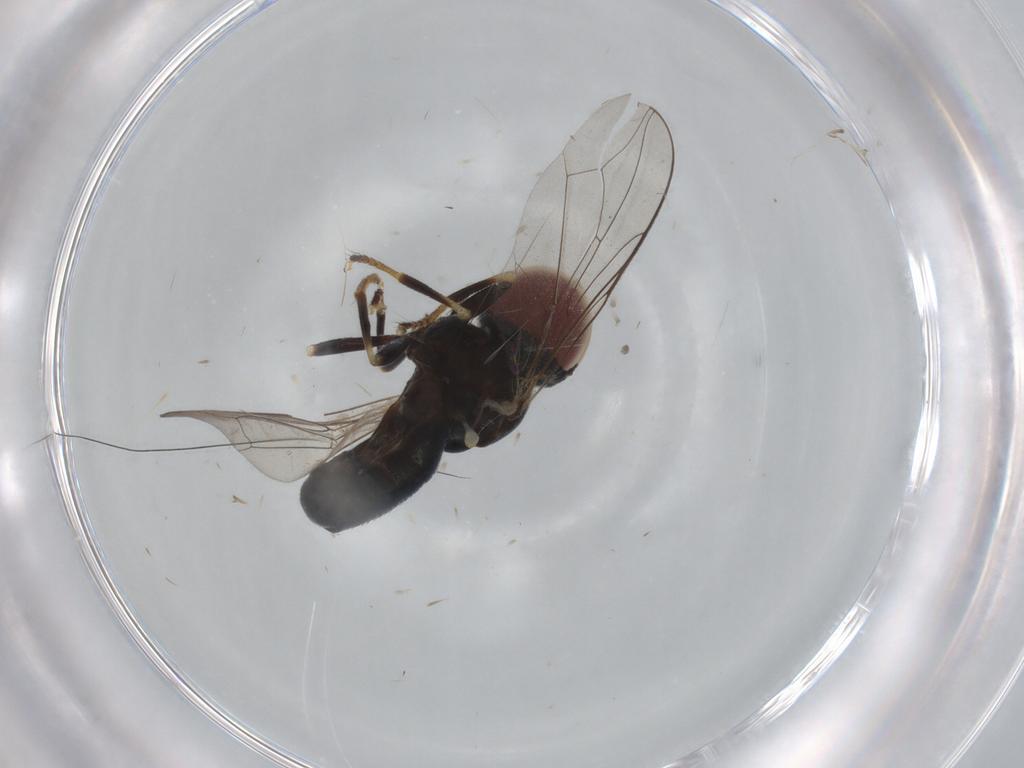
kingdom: Animalia
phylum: Arthropoda
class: Insecta
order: Diptera
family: Pipunculidae
